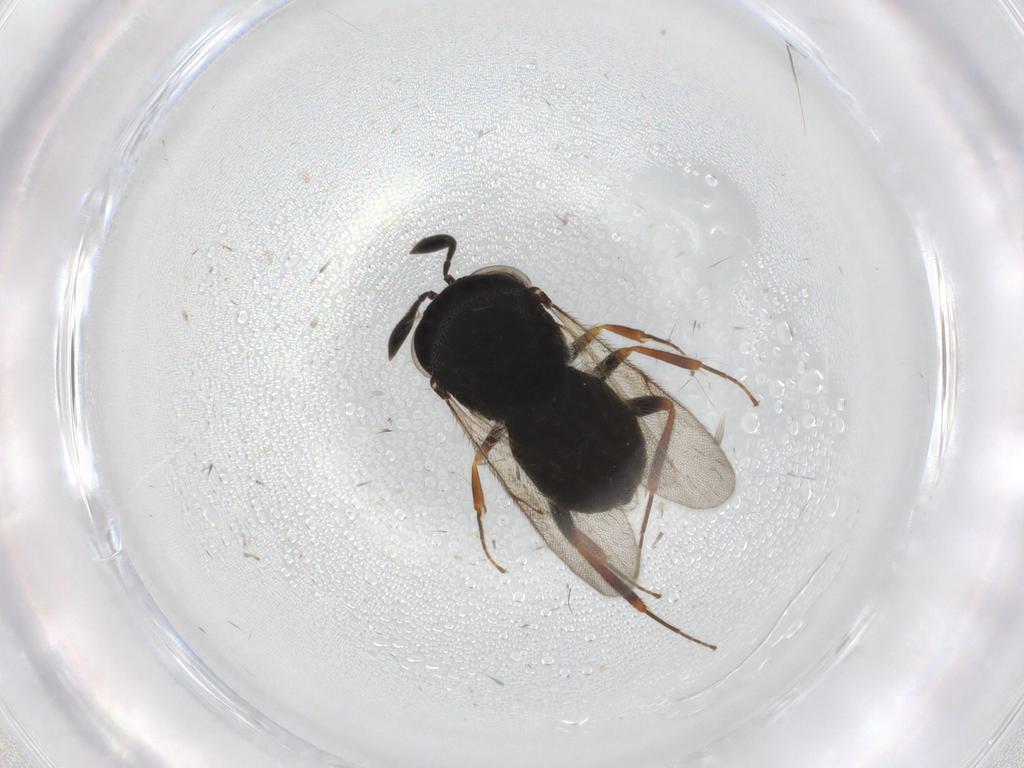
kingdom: Animalia
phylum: Arthropoda
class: Insecta
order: Hymenoptera
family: Scelionidae
